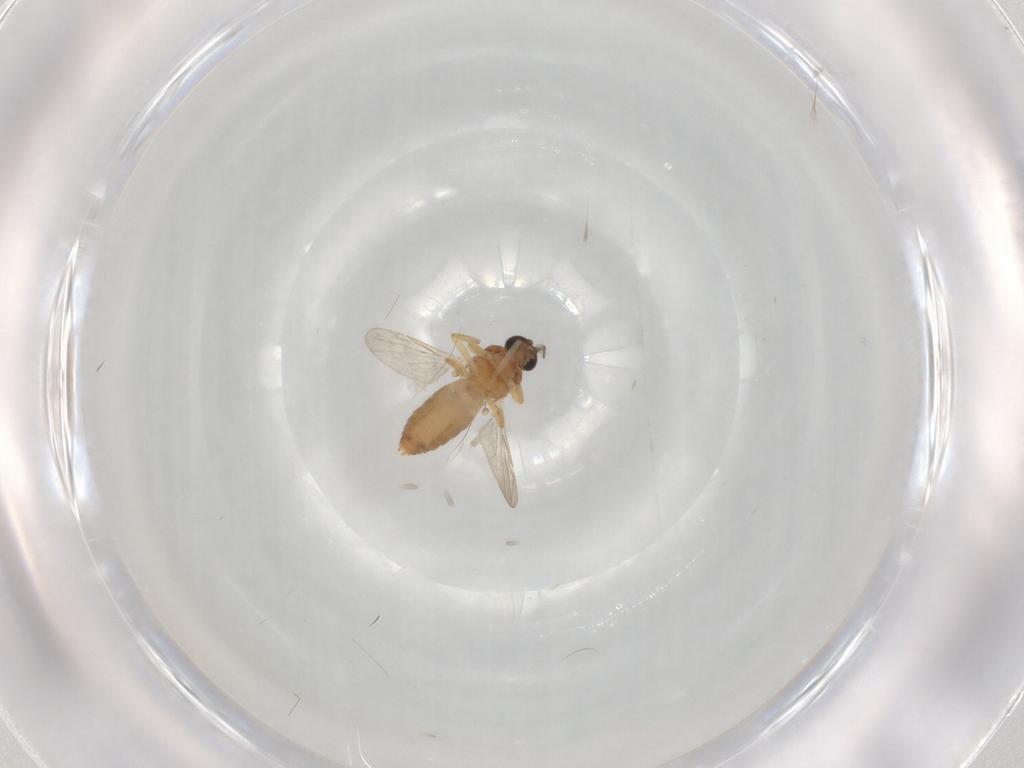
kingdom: Animalia
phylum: Arthropoda
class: Insecta
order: Diptera
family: Ceratopogonidae
